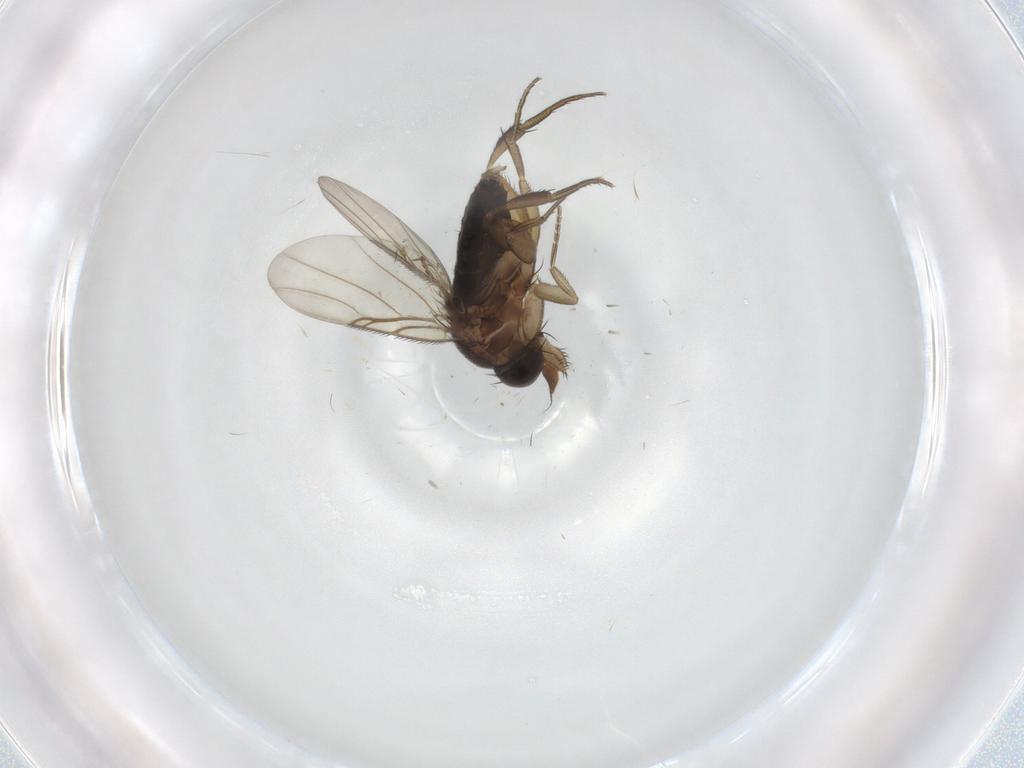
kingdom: Animalia
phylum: Arthropoda
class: Insecta
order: Diptera
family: Phoridae
